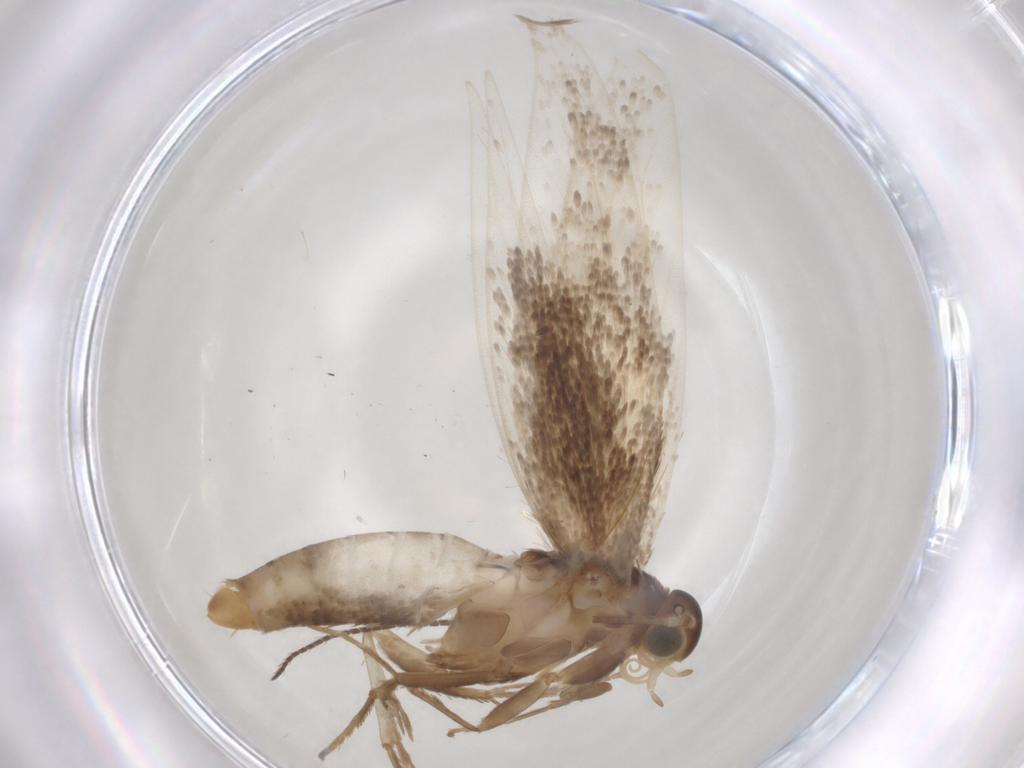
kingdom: Animalia
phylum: Arthropoda
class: Insecta
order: Lepidoptera
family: Douglasiidae
